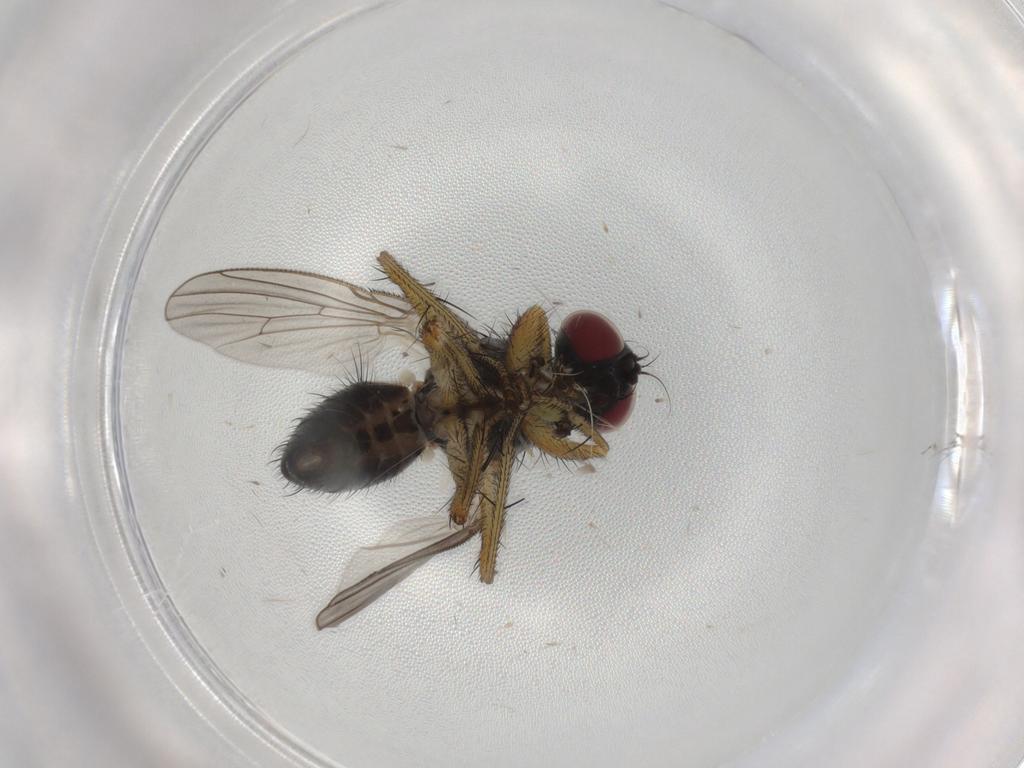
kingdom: Animalia
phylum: Arthropoda
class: Insecta
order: Diptera
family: Muscidae
